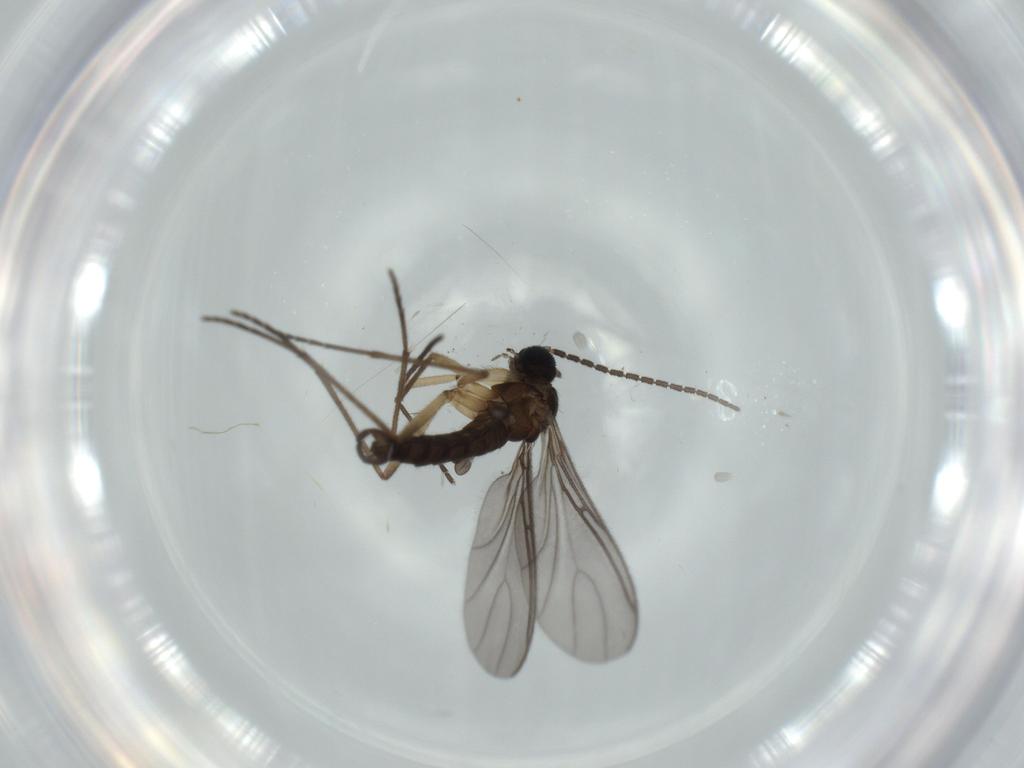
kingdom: Animalia
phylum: Arthropoda
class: Insecta
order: Diptera
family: Sciaridae
